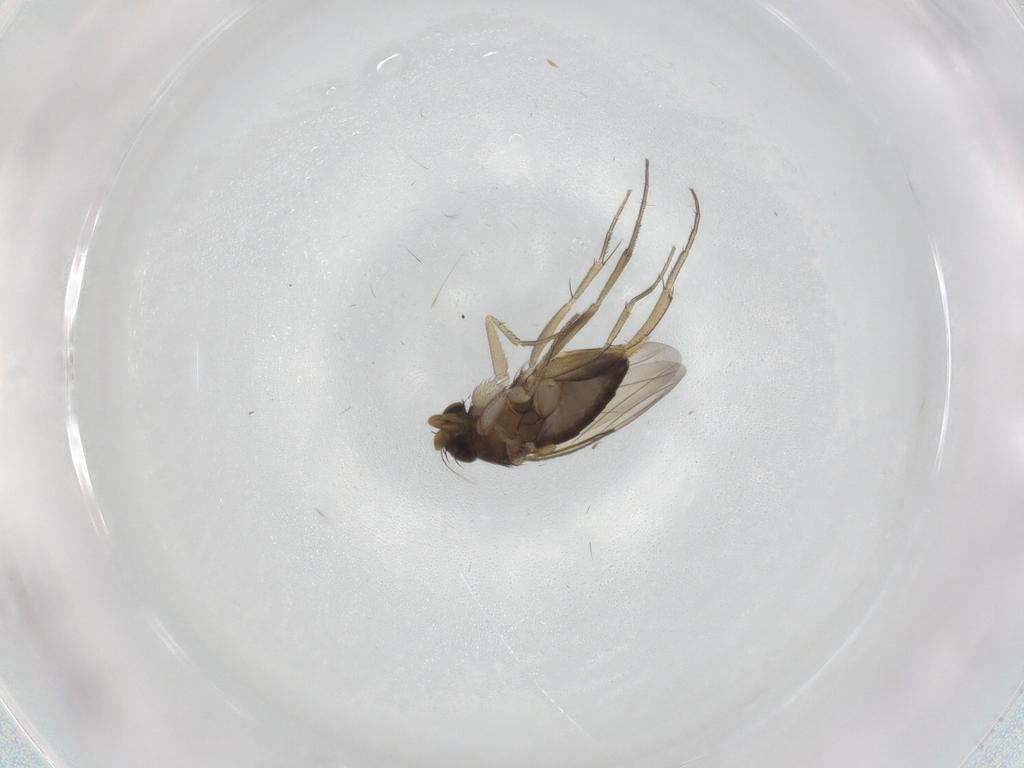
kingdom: Animalia
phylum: Arthropoda
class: Insecta
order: Diptera
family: Phoridae
